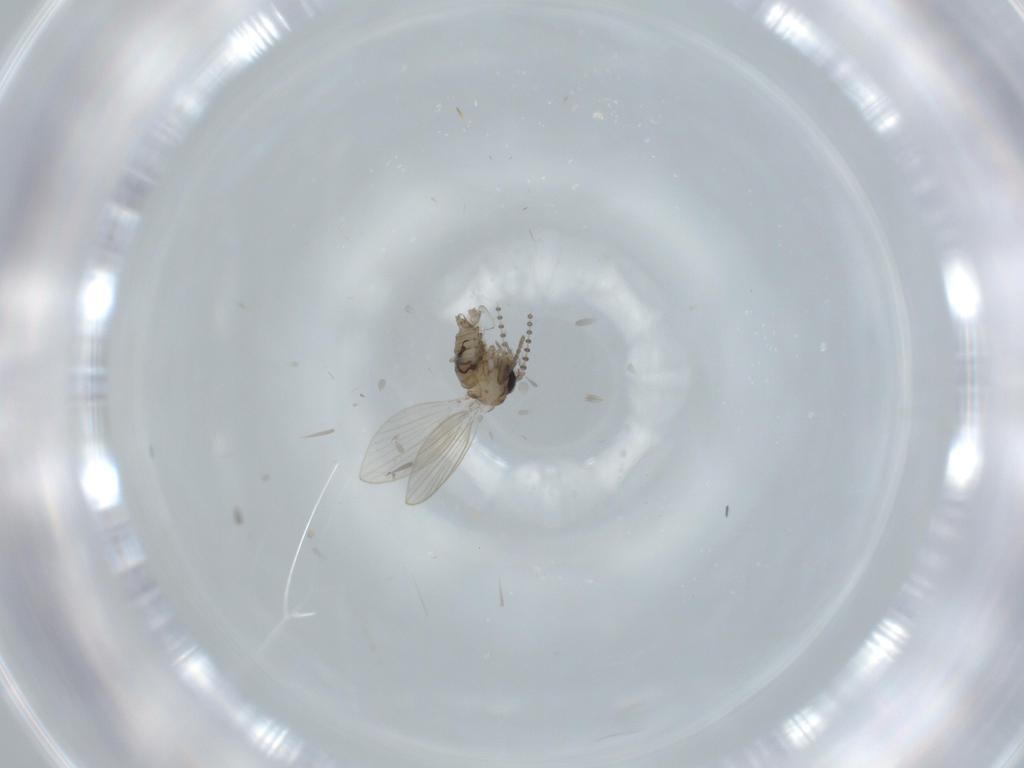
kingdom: Animalia
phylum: Arthropoda
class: Insecta
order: Diptera
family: Psychodidae
